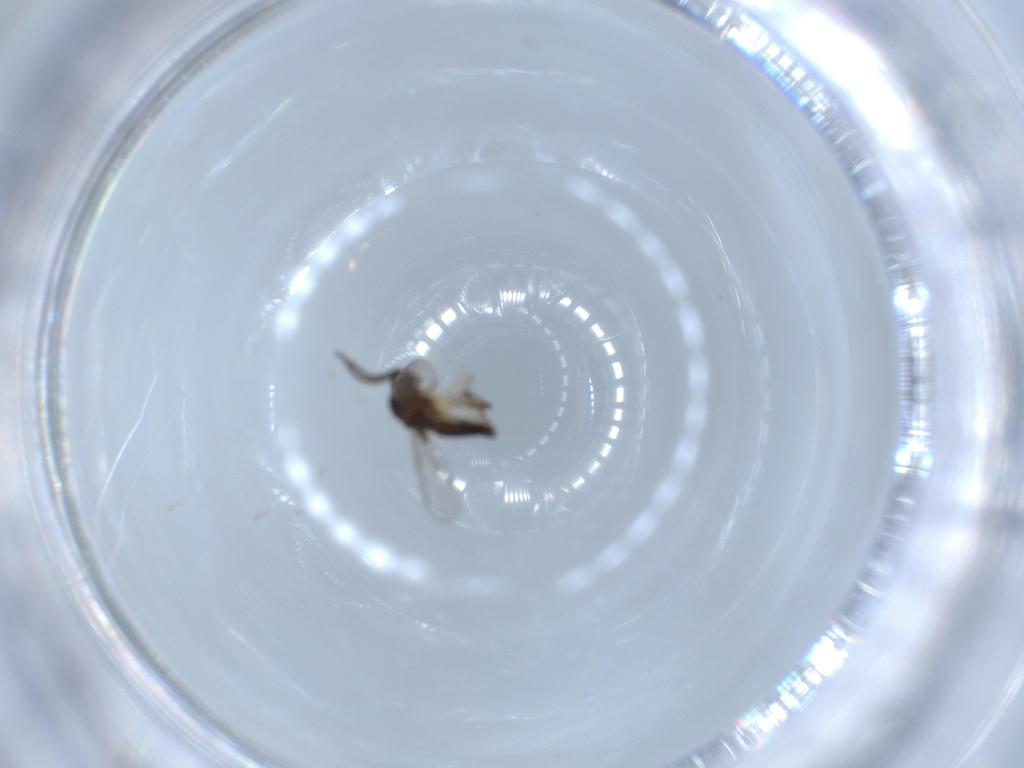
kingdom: Animalia
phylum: Arthropoda
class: Insecta
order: Diptera
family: Sciaridae
